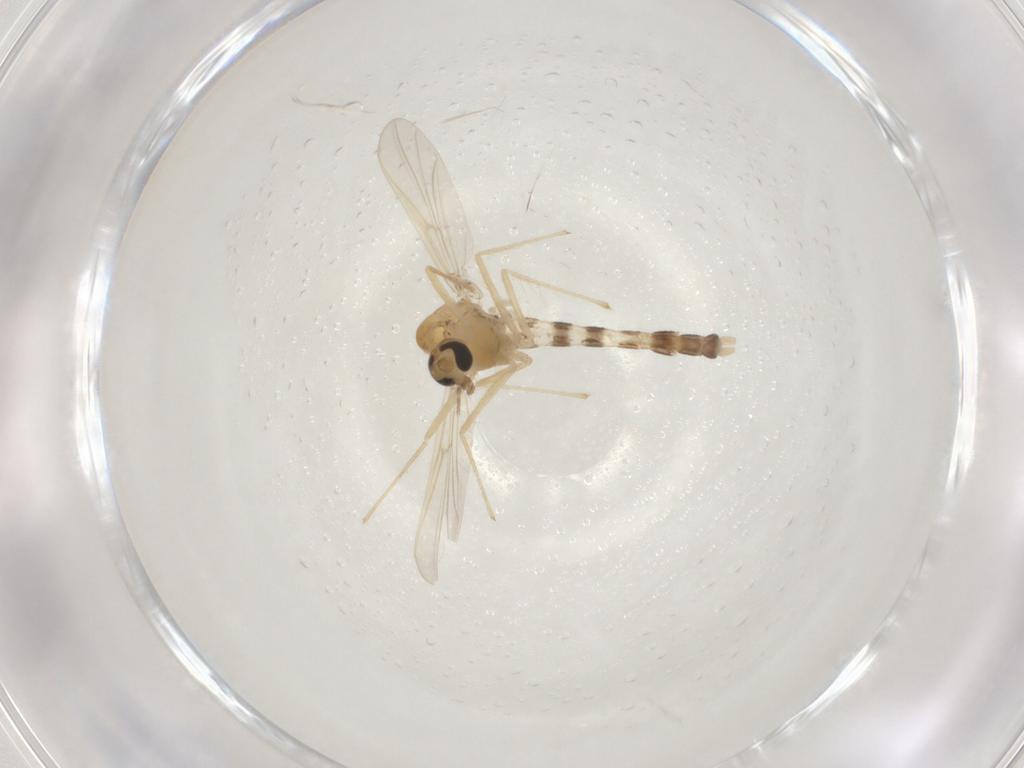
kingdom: Animalia
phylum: Arthropoda
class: Insecta
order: Diptera
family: Chironomidae
